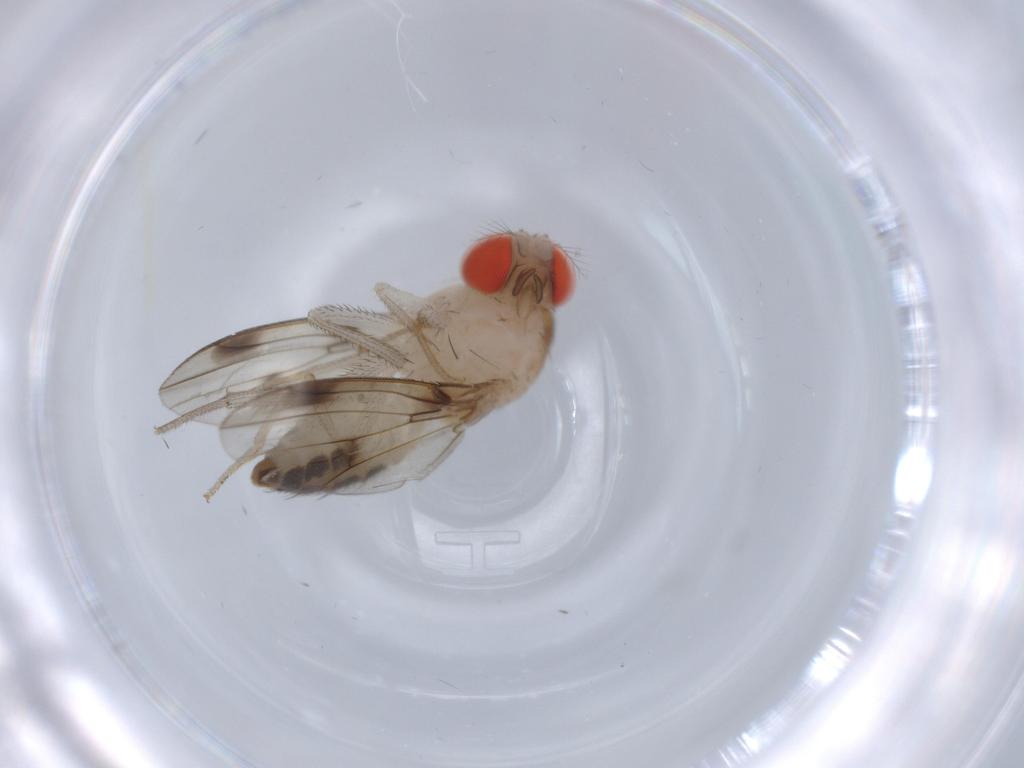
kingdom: Animalia
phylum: Arthropoda
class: Insecta
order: Diptera
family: Drosophilidae
